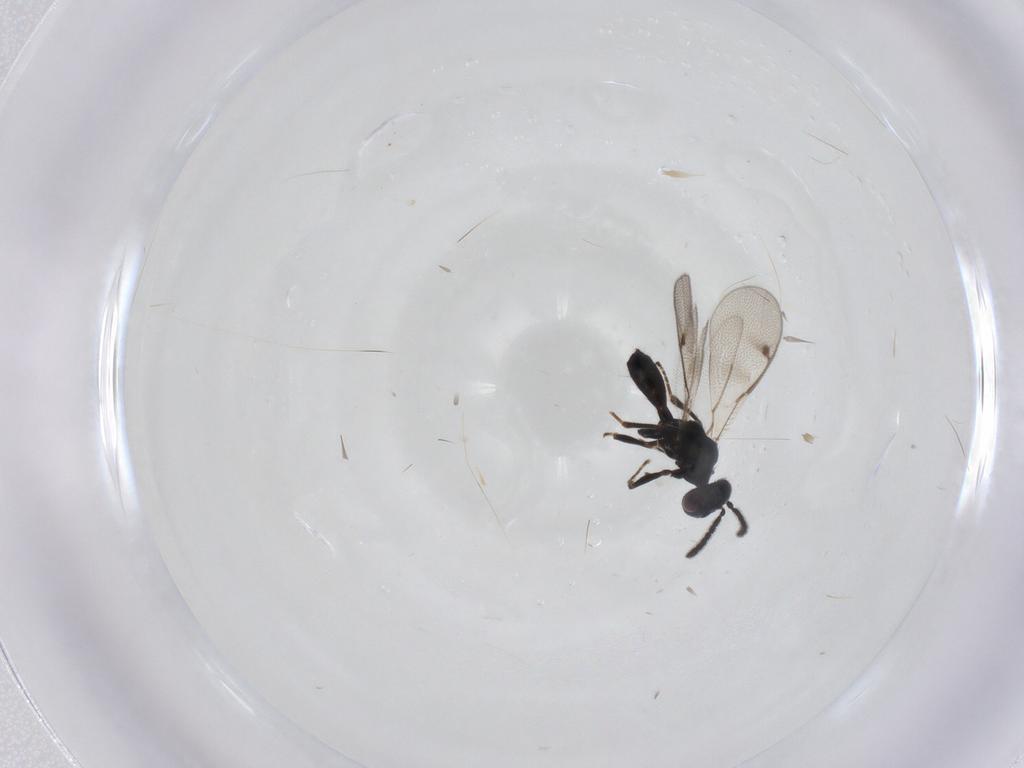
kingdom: Animalia
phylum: Arthropoda
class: Insecta
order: Hymenoptera
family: Pteromalidae
